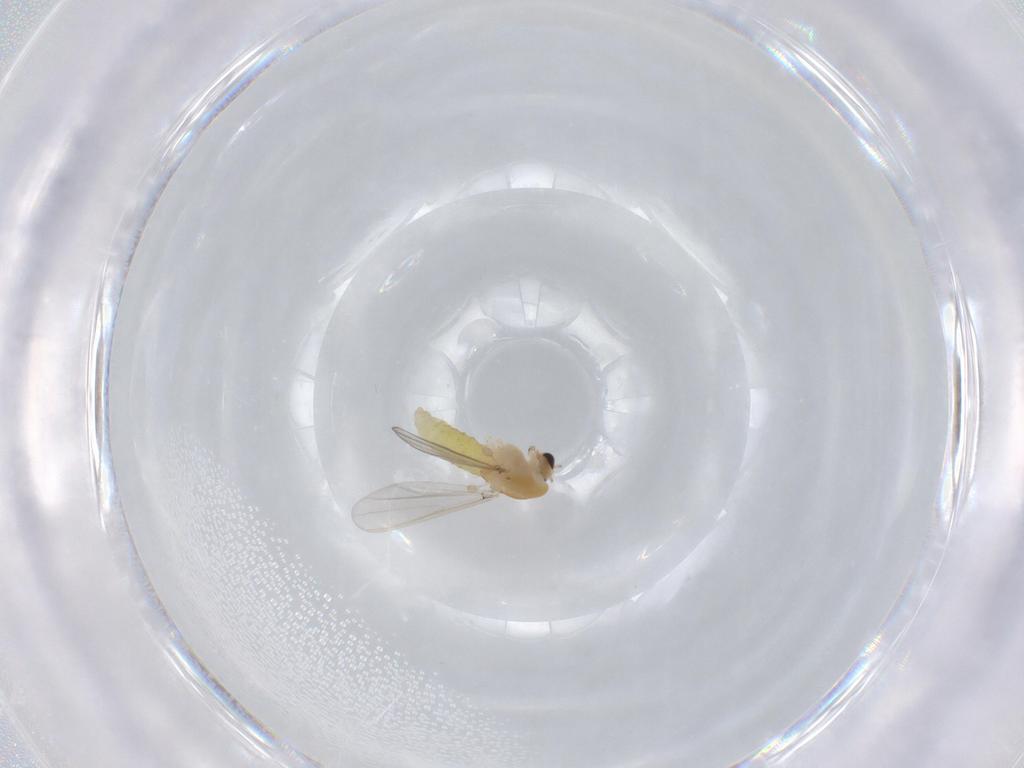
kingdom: Animalia
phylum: Arthropoda
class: Insecta
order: Diptera
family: Chironomidae
